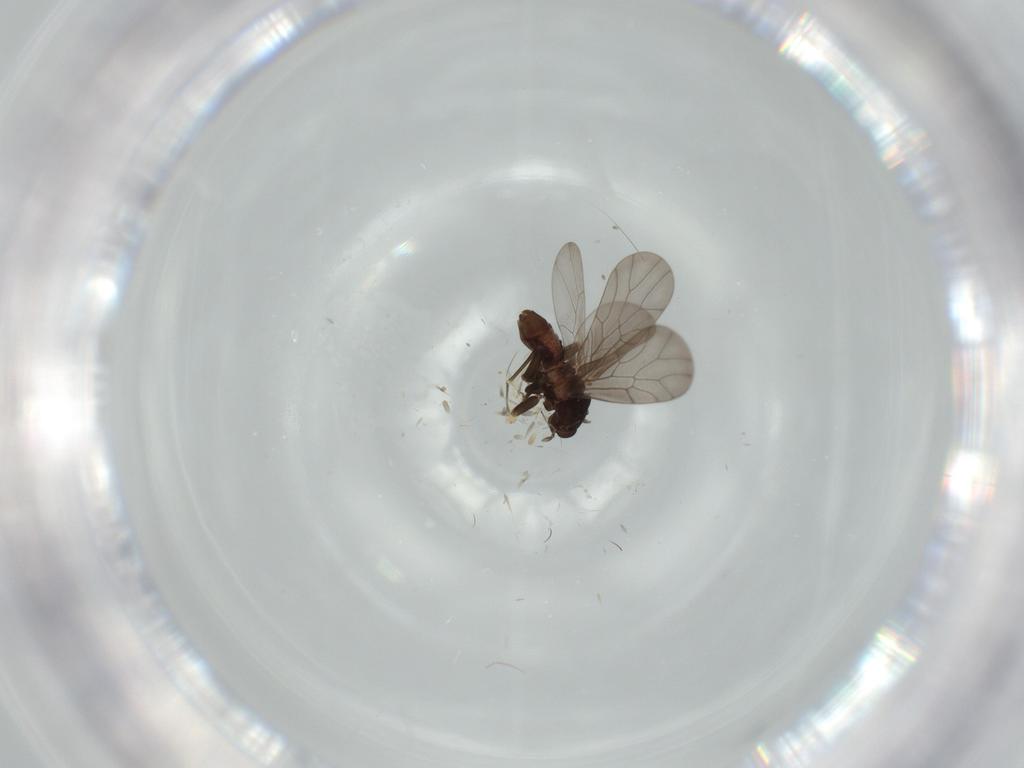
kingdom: Animalia
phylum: Arthropoda
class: Insecta
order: Psocodea
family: Lepidopsocidae
